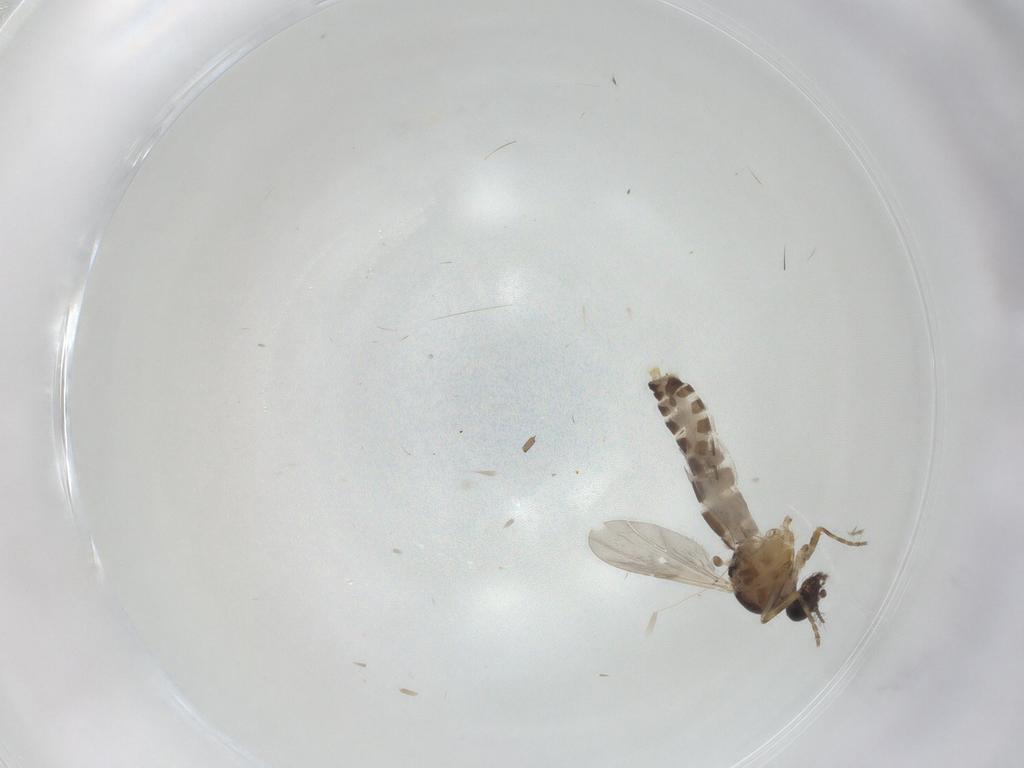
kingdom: Animalia
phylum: Arthropoda
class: Insecta
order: Diptera
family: Ceratopogonidae
